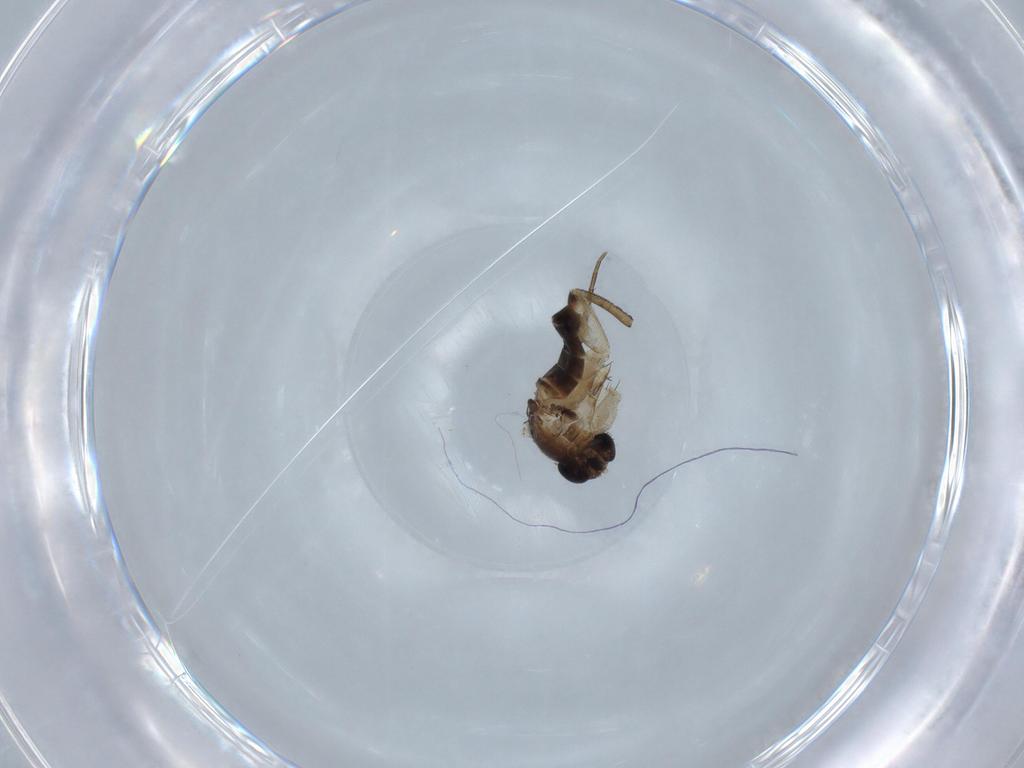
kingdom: Animalia
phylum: Arthropoda
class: Insecta
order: Diptera
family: Phoridae
